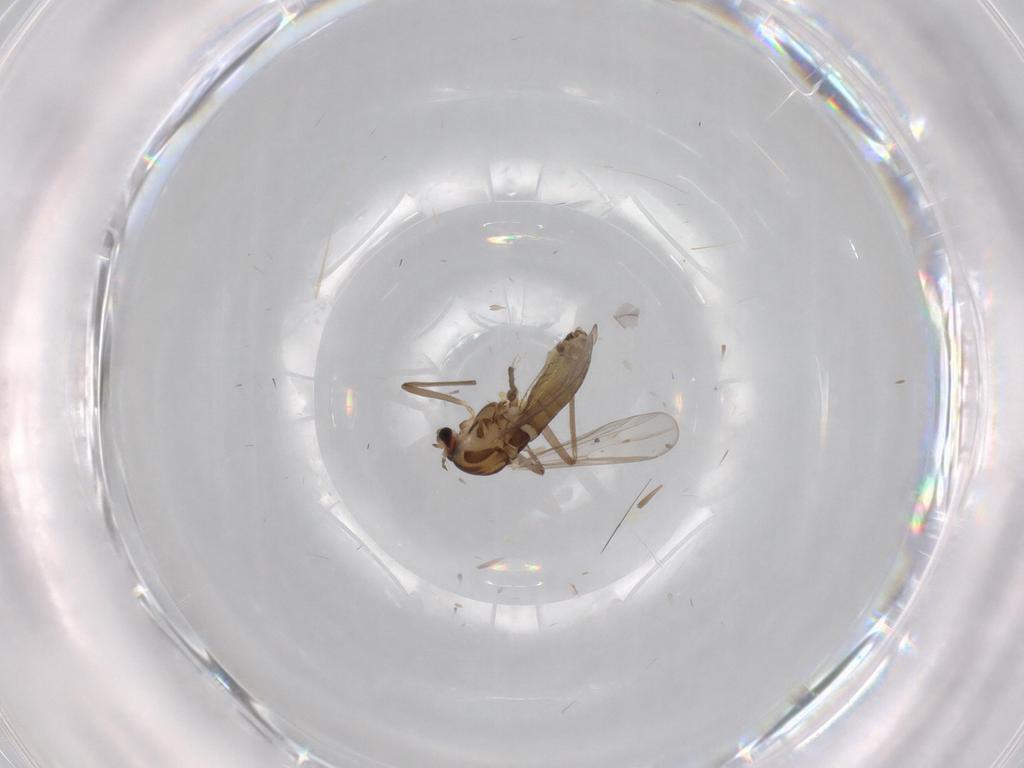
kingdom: Animalia
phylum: Arthropoda
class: Insecta
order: Diptera
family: Chironomidae
